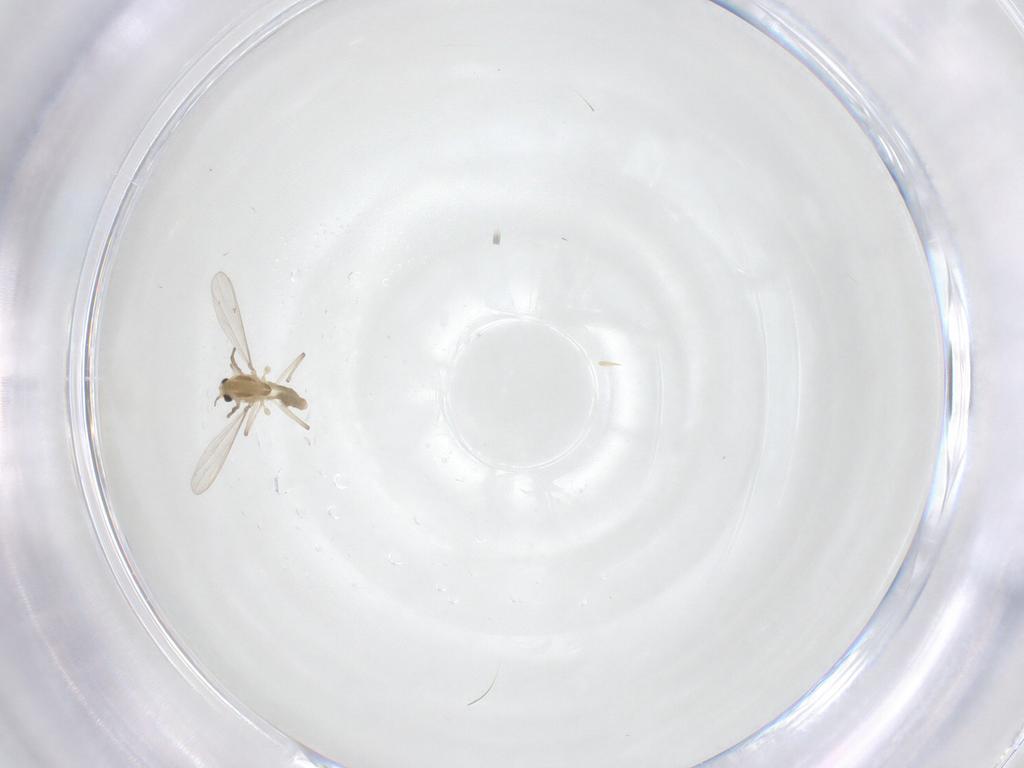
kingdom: Animalia
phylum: Arthropoda
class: Insecta
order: Diptera
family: Chironomidae
